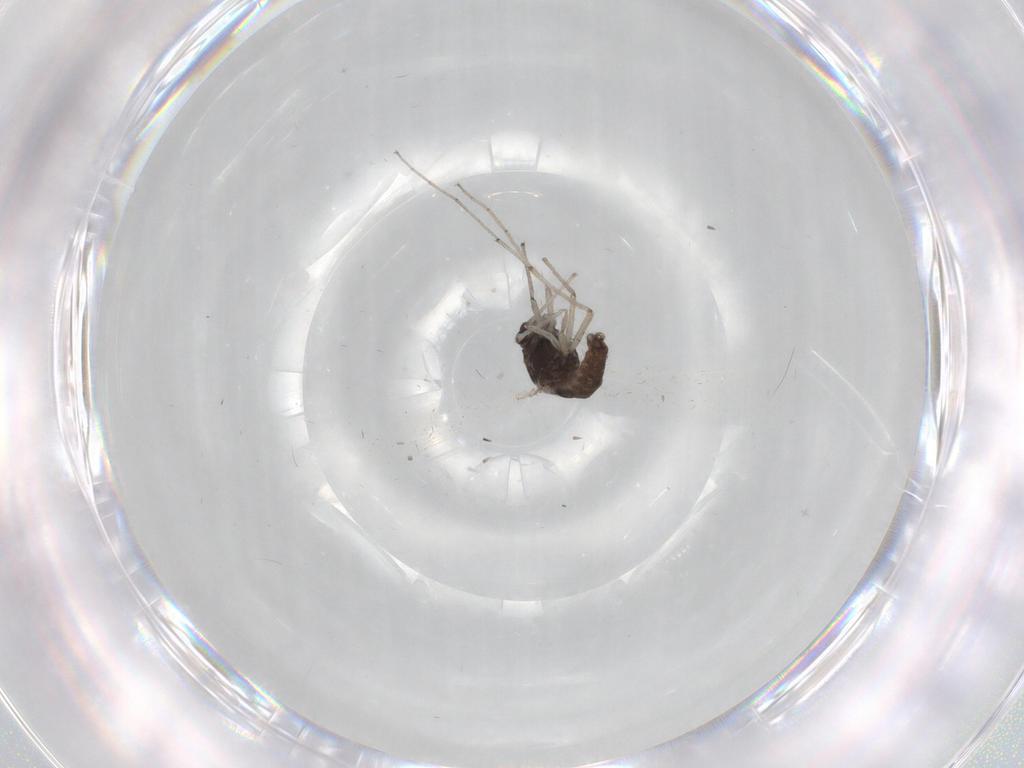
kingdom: Animalia
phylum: Arthropoda
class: Insecta
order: Diptera
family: Chironomidae
